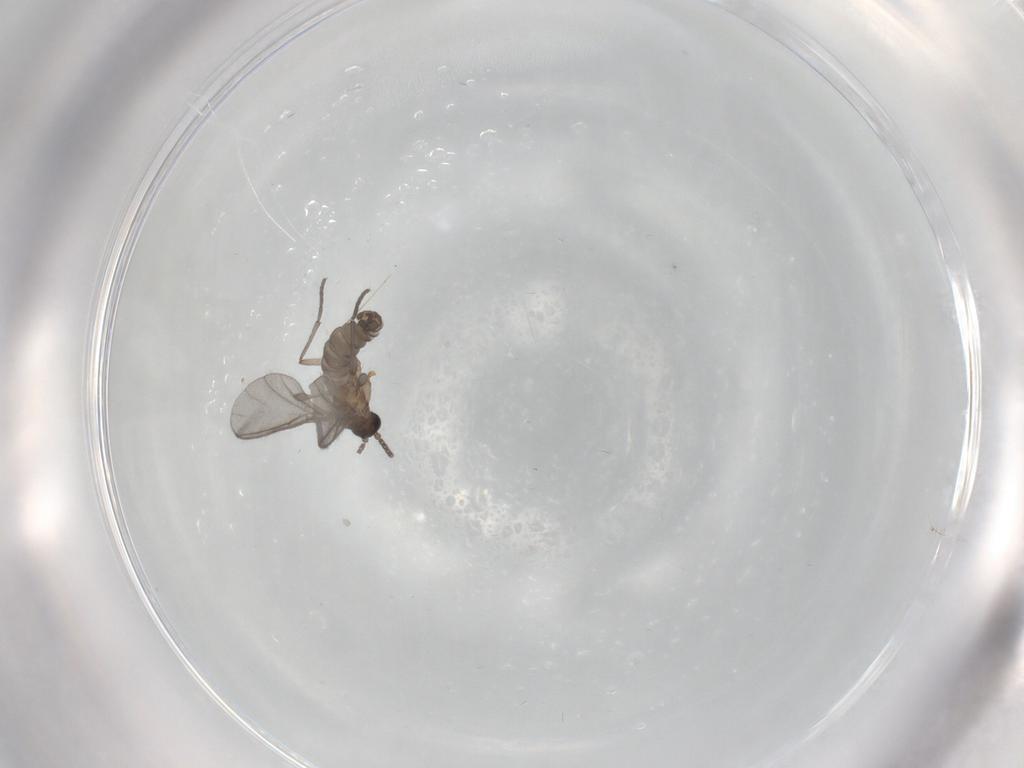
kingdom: Animalia
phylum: Arthropoda
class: Insecta
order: Diptera
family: Sciaridae
